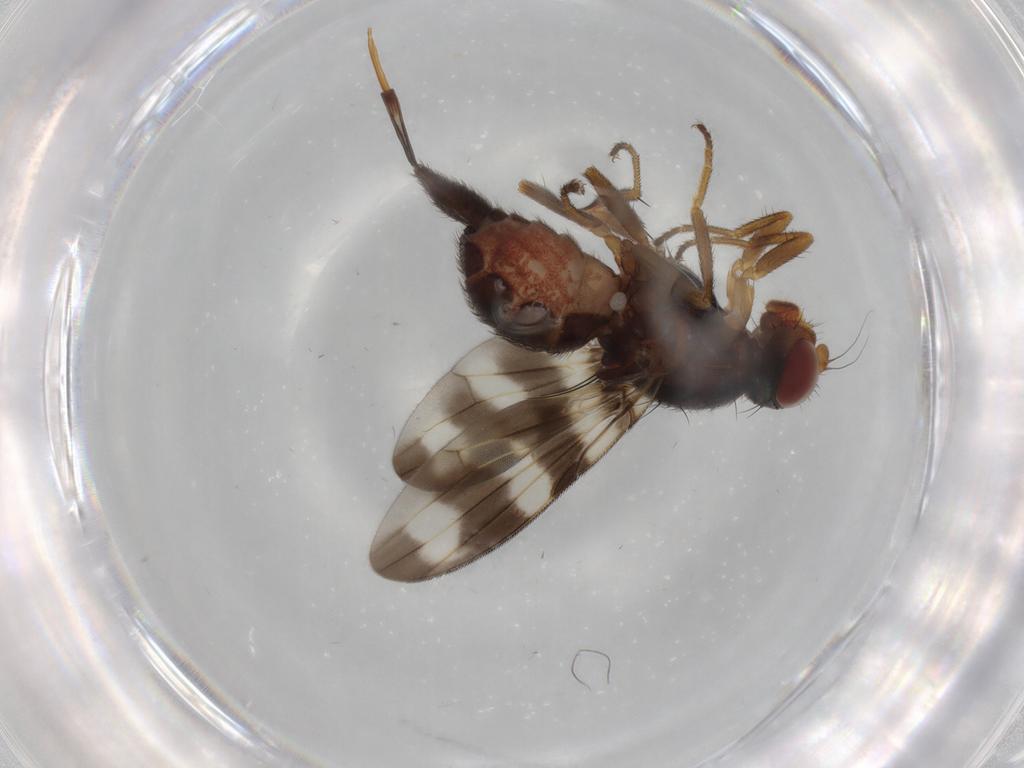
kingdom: Animalia
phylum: Arthropoda
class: Insecta
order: Diptera
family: Ulidiidae
